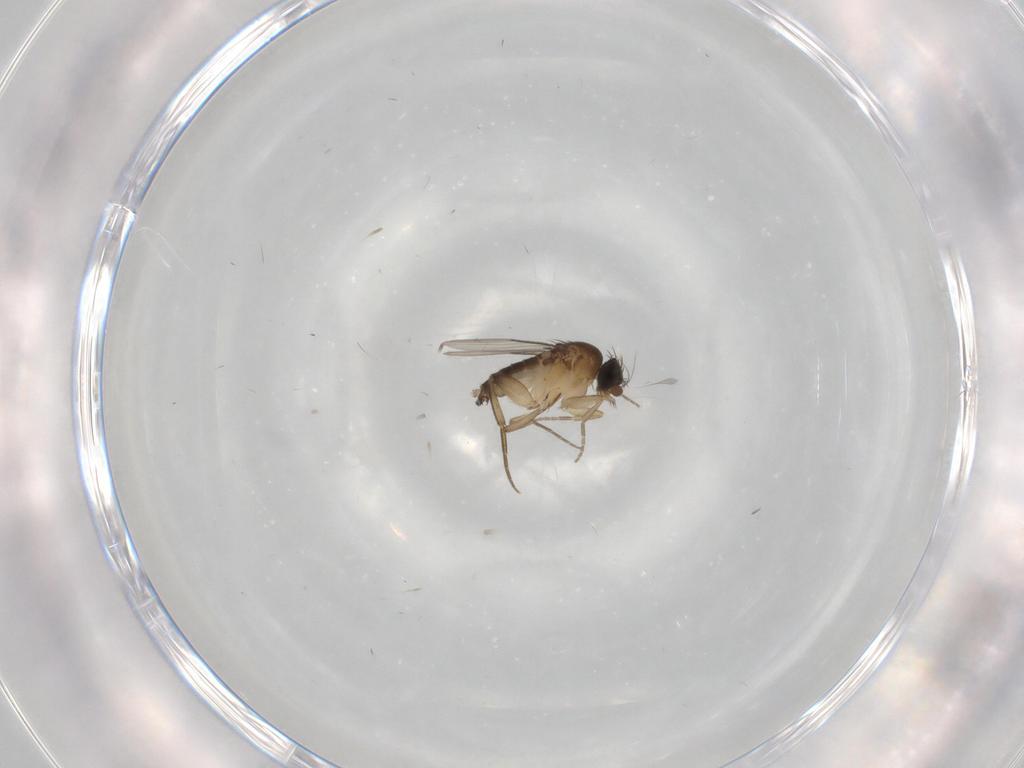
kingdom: Animalia
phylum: Arthropoda
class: Insecta
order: Diptera
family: Phoridae
